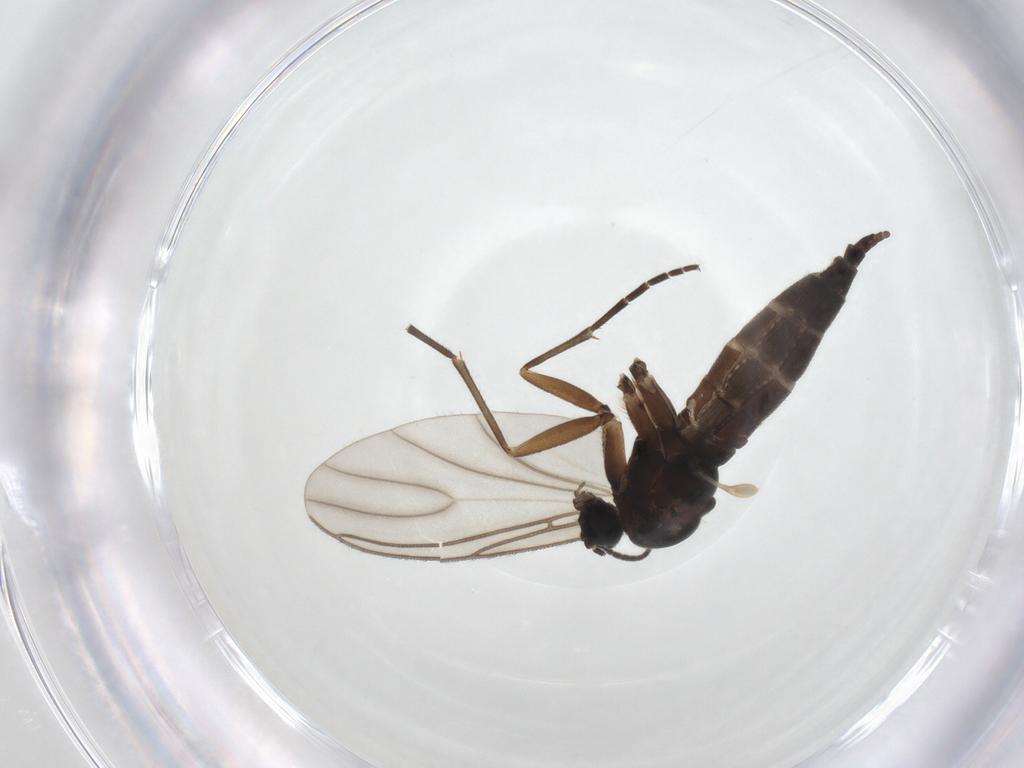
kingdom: Animalia
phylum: Arthropoda
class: Insecta
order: Diptera
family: Sciaridae
